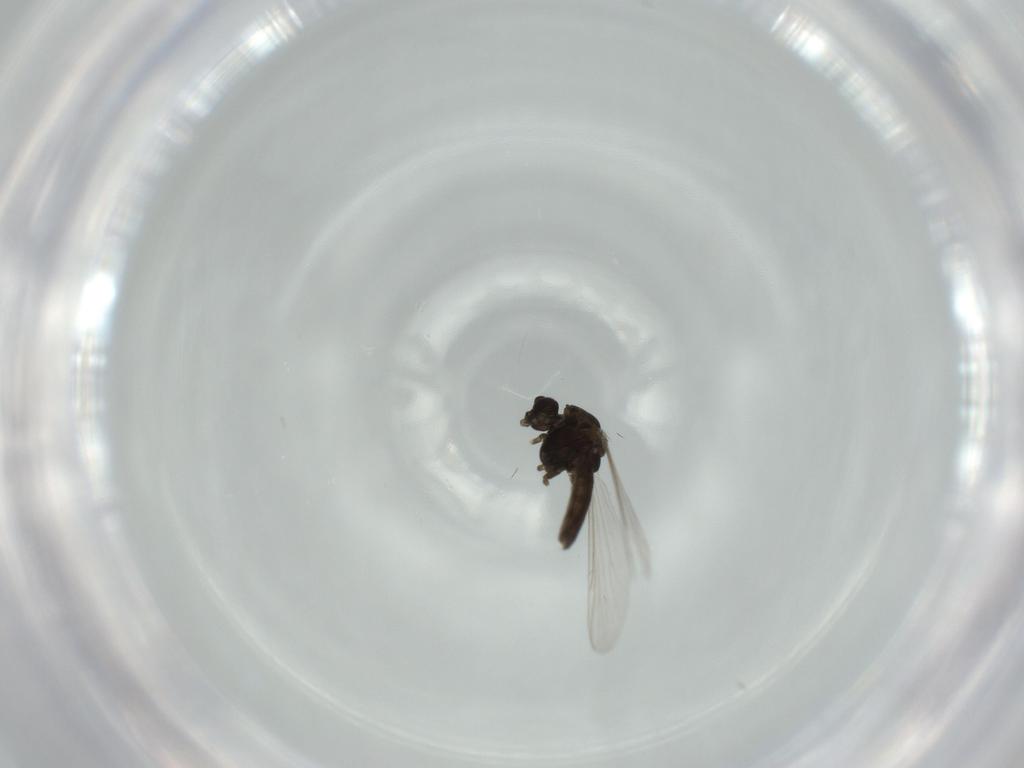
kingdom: Animalia
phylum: Arthropoda
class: Insecta
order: Diptera
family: Chironomidae
